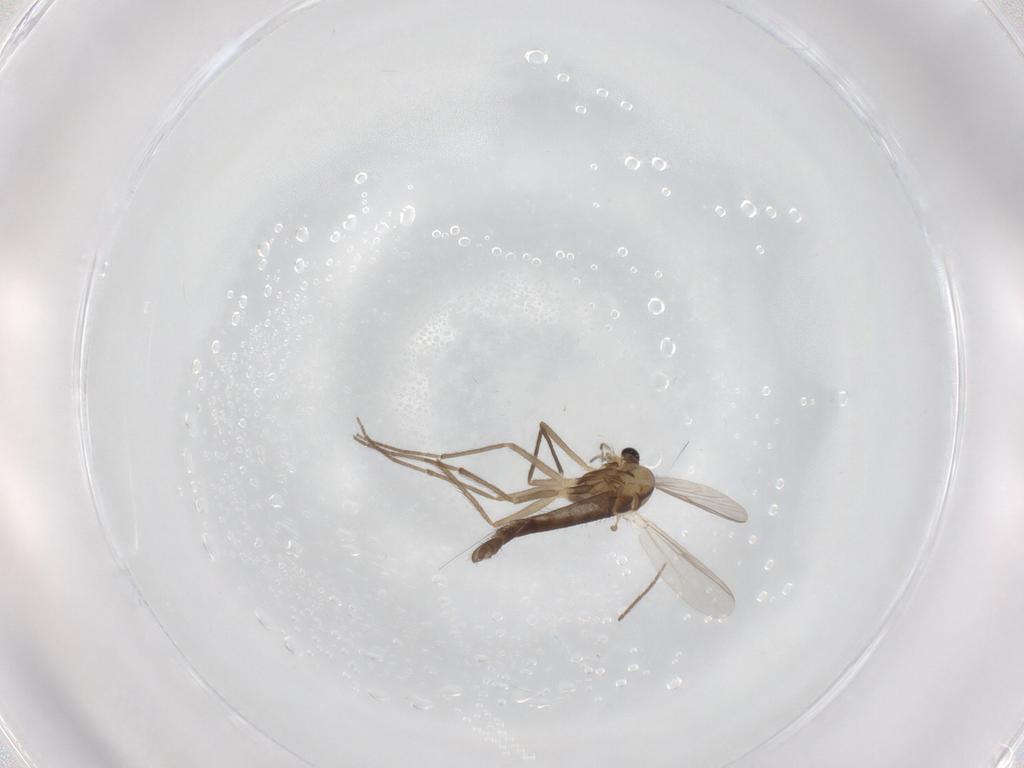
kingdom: Animalia
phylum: Arthropoda
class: Insecta
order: Diptera
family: Chironomidae
